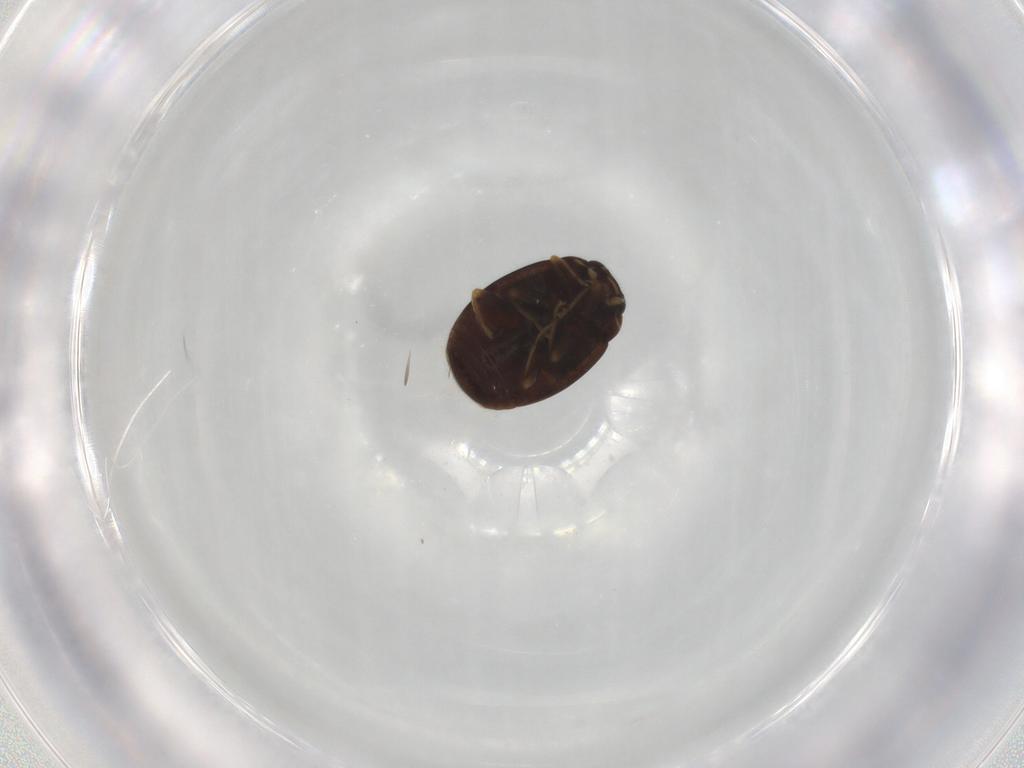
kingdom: Animalia
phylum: Arthropoda
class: Insecta
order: Coleoptera
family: Coccinellidae
